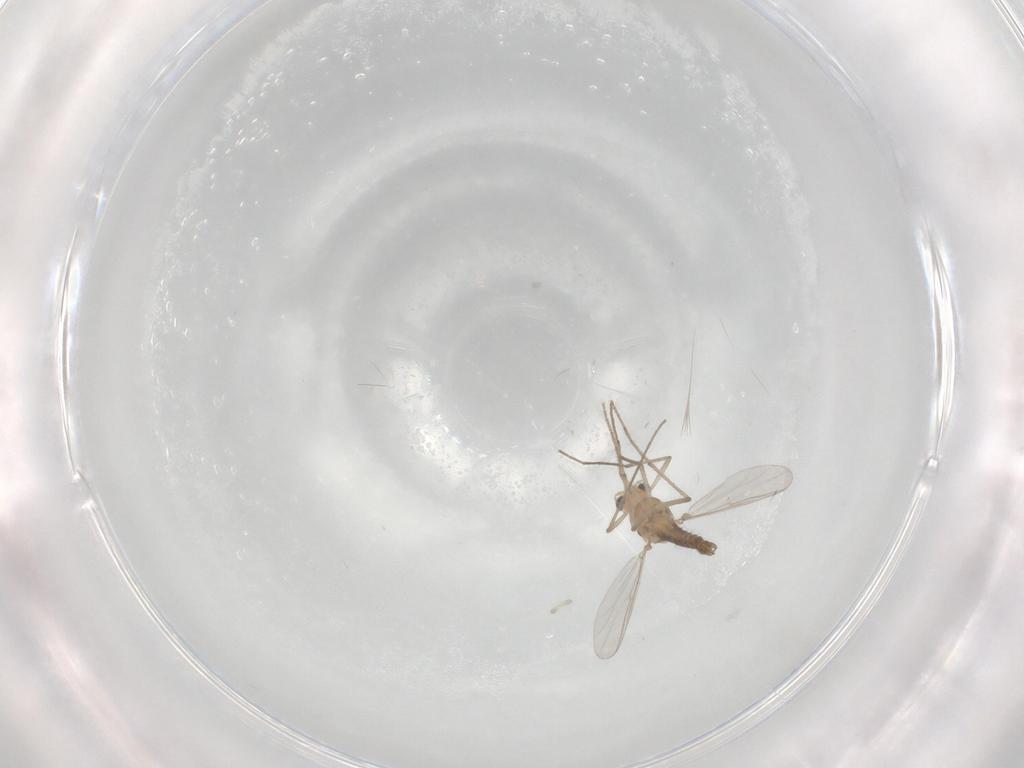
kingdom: Animalia
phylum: Arthropoda
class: Insecta
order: Diptera
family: Chironomidae
